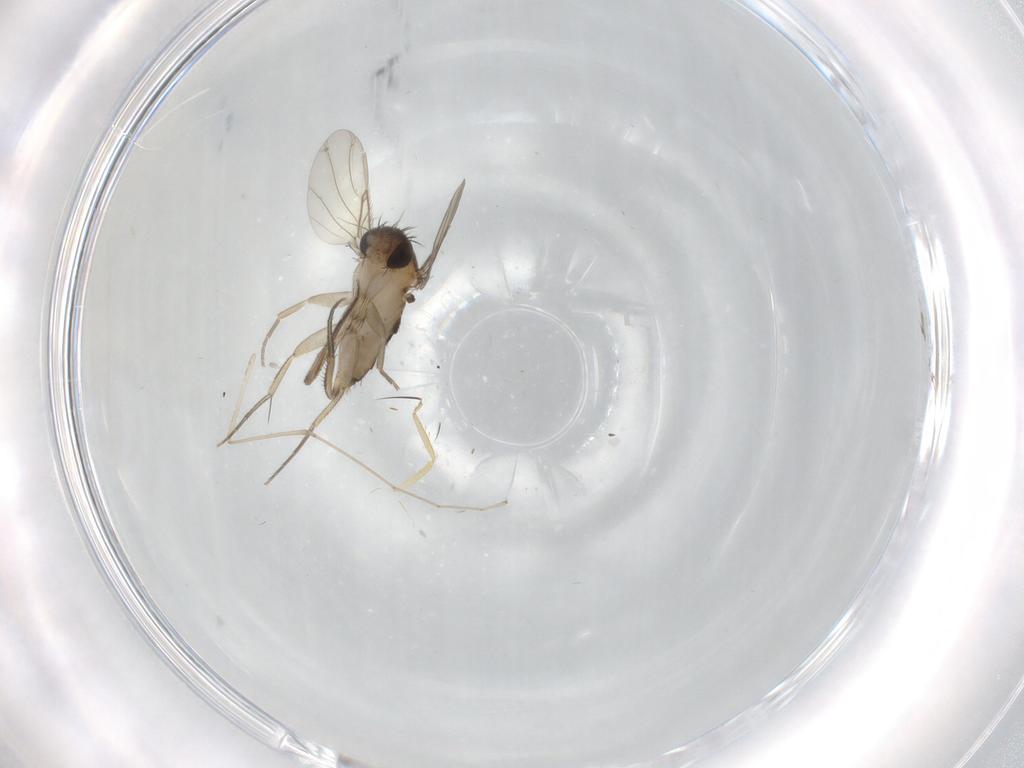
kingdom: Animalia
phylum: Arthropoda
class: Insecta
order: Diptera
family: Phoridae
